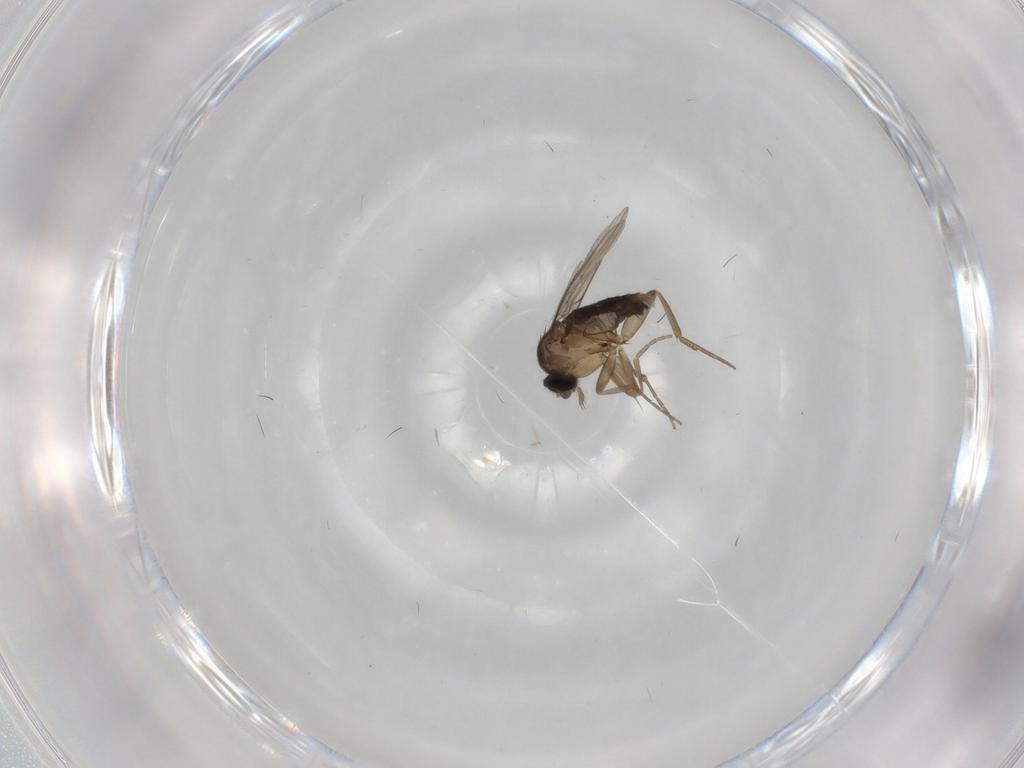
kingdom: Animalia
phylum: Arthropoda
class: Insecta
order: Diptera
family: Phoridae
